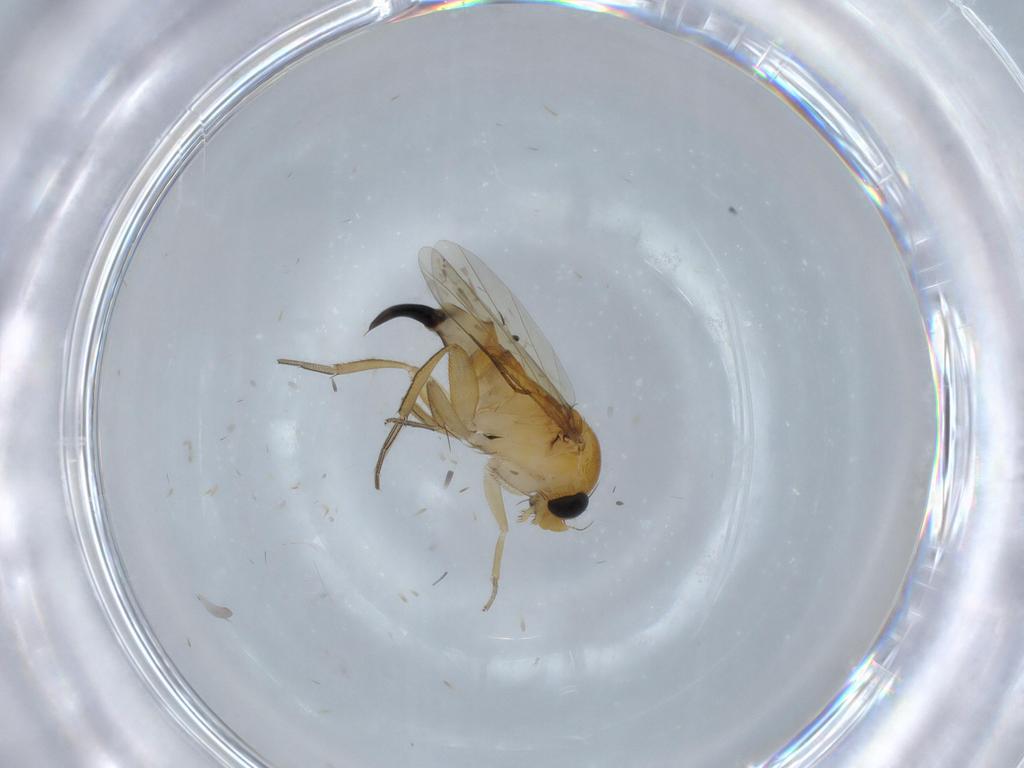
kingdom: Animalia
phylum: Arthropoda
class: Insecta
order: Diptera
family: Phoridae
